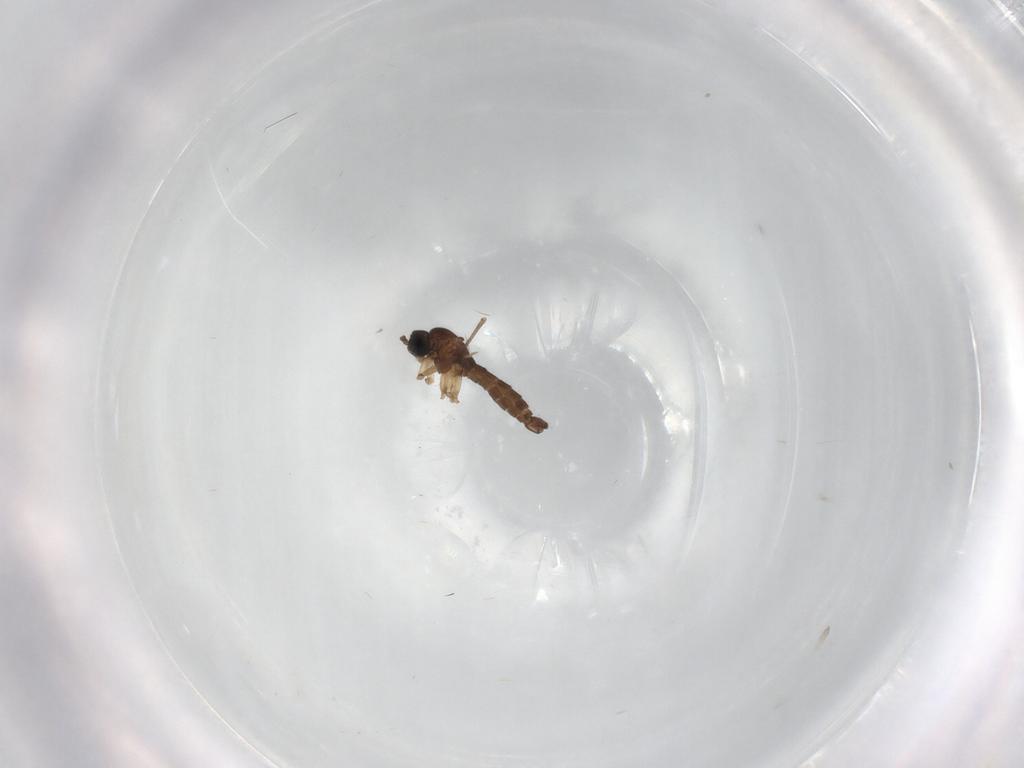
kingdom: Animalia
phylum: Arthropoda
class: Insecta
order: Diptera
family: Sciaridae
